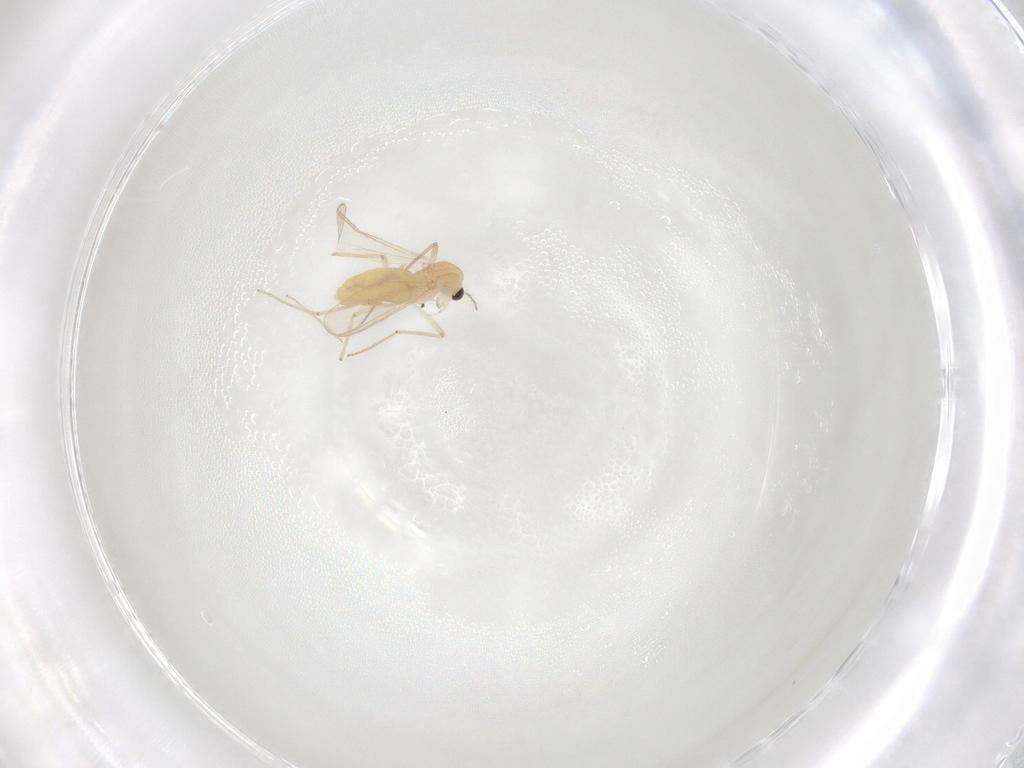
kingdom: Animalia
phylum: Arthropoda
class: Insecta
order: Diptera
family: Chironomidae
